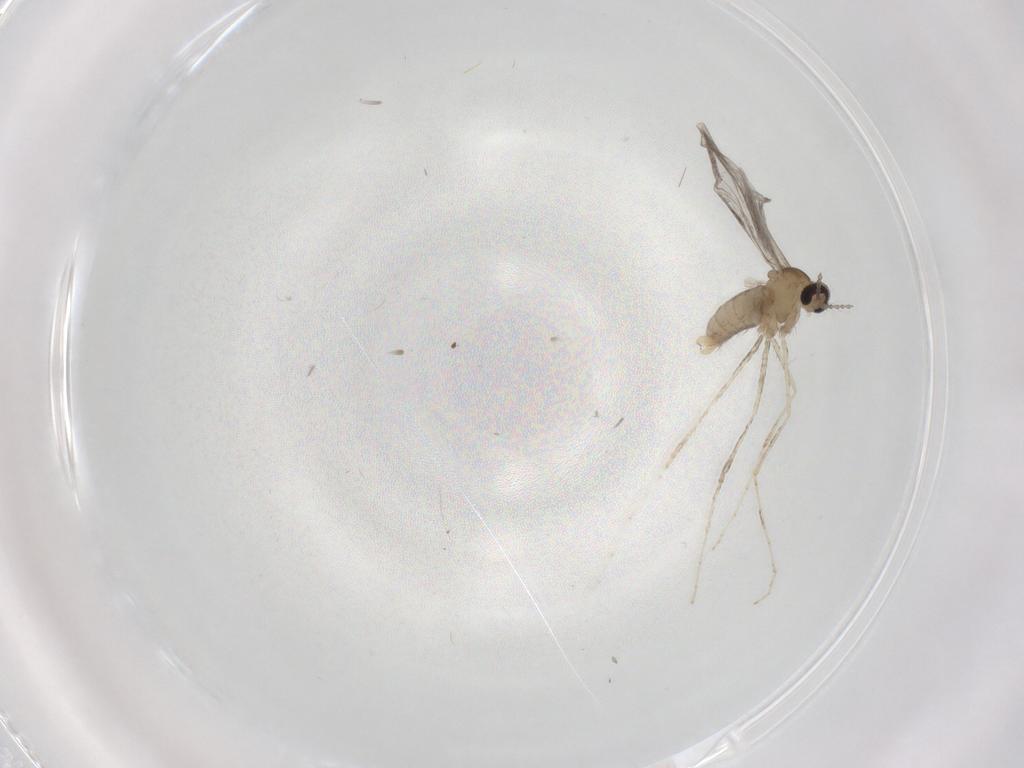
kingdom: Animalia
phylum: Arthropoda
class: Insecta
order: Diptera
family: Cecidomyiidae
